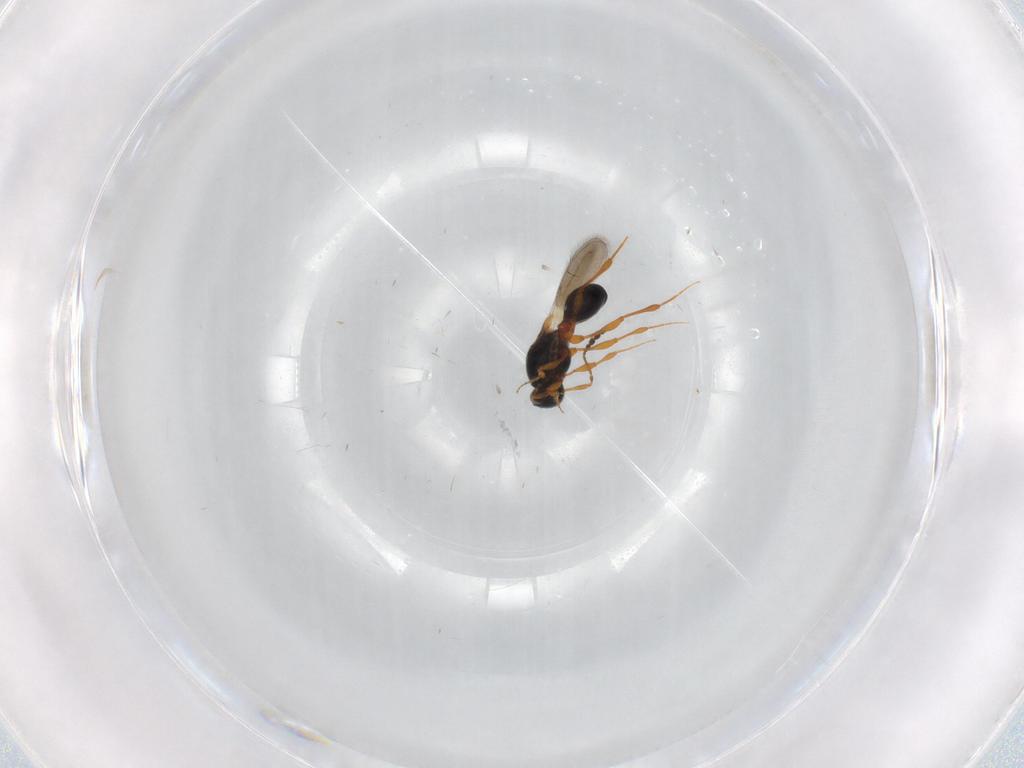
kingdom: Animalia
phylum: Arthropoda
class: Insecta
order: Hymenoptera
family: Platygastridae
